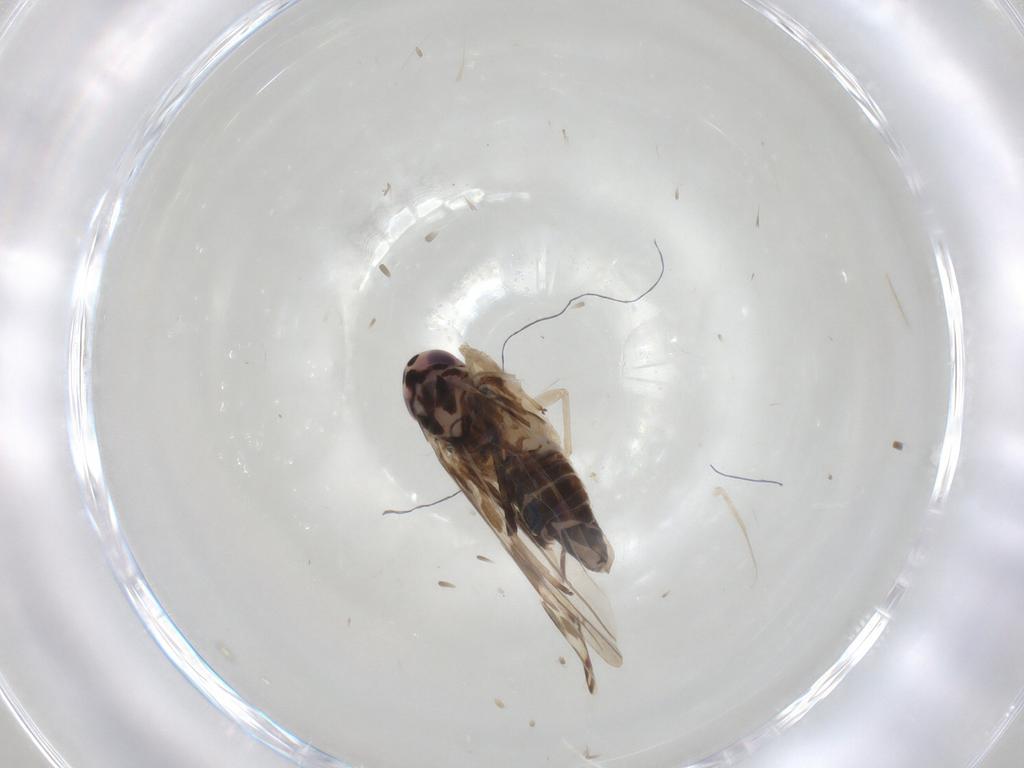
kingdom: Animalia
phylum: Arthropoda
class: Insecta
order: Hemiptera
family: Cicadellidae
